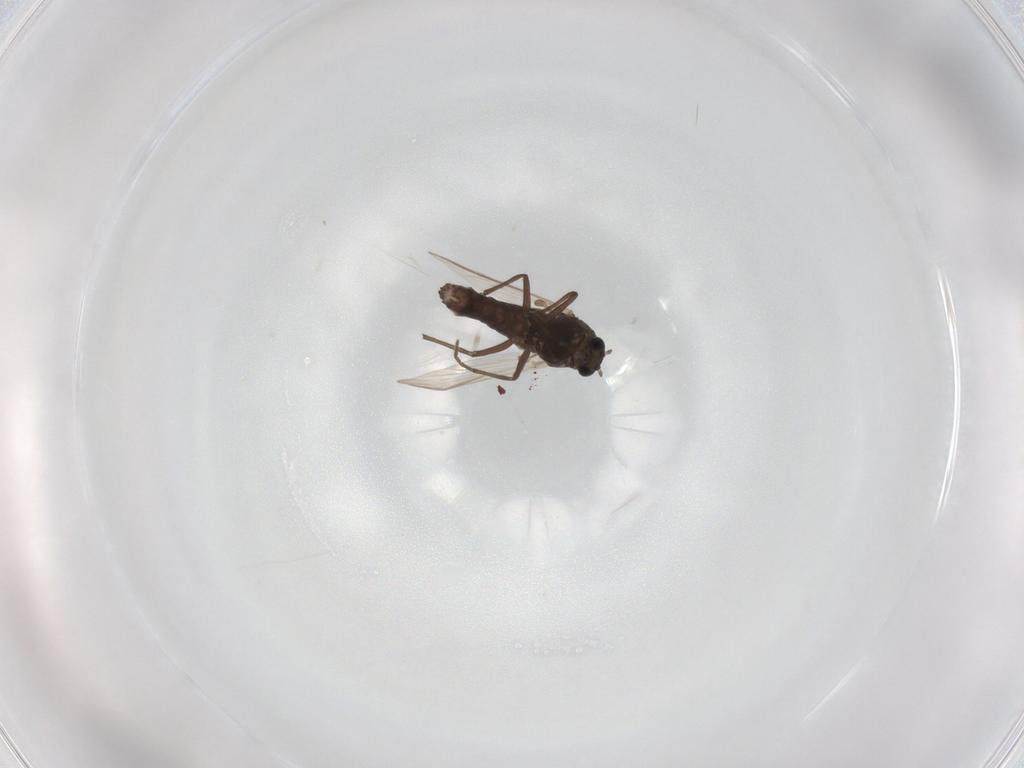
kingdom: Animalia
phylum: Arthropoda
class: Insecta
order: Diptera
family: Chironomidae
